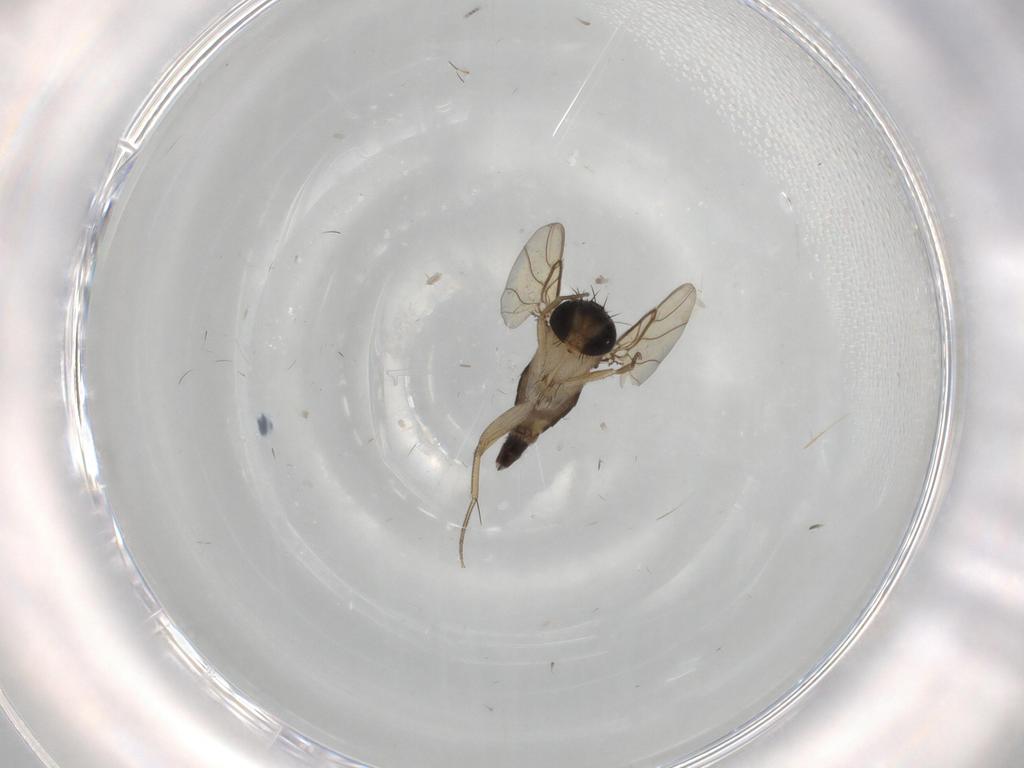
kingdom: Animalia
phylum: Arthropoda
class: Insecta
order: Diptera
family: Phoridae
